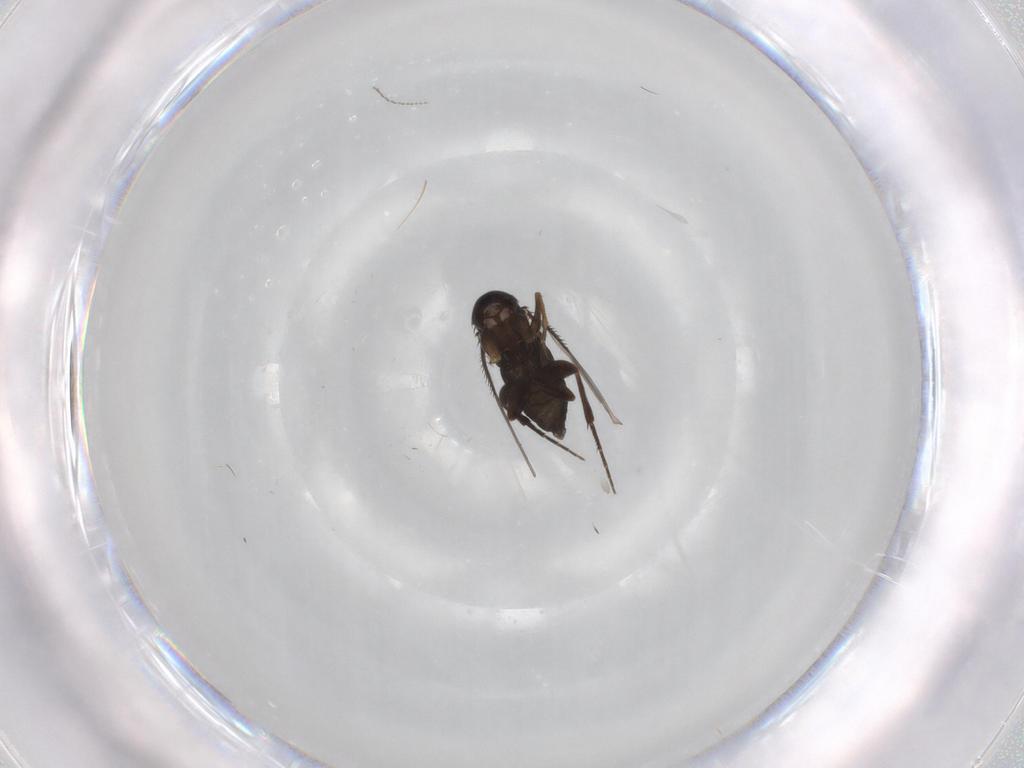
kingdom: Animalia
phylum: Arthropoda
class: Insecta
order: Diptera
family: Phoridae
